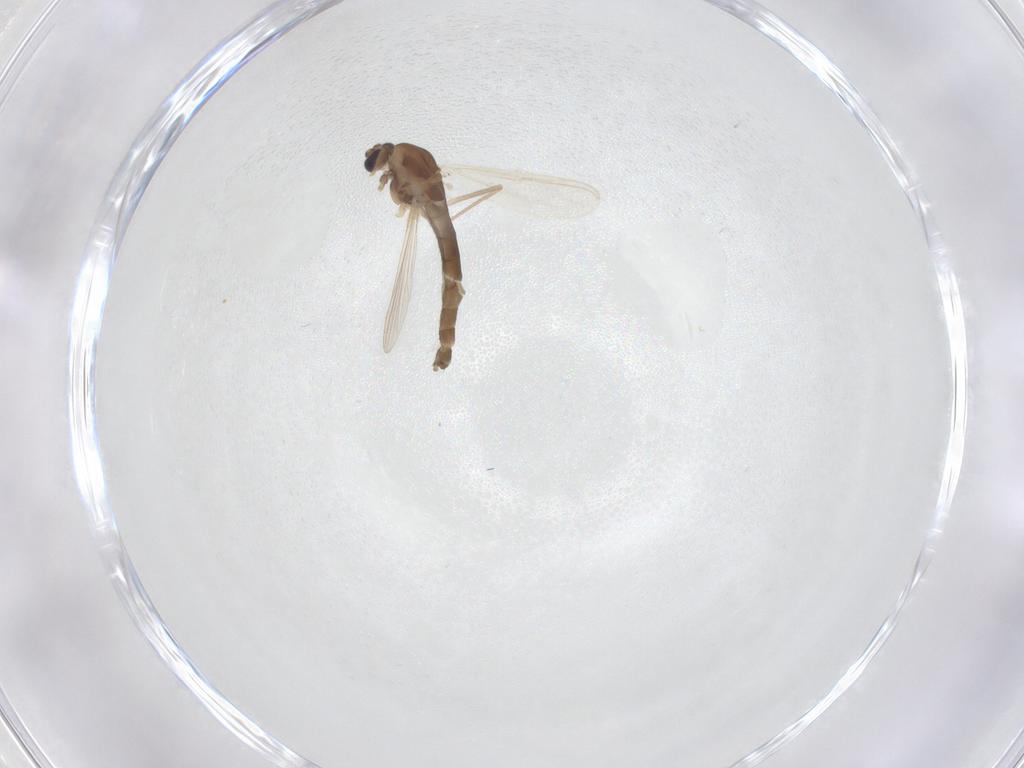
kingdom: Animalia
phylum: Arthropoda
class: Insecta
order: Diptera
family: Chironomidae
